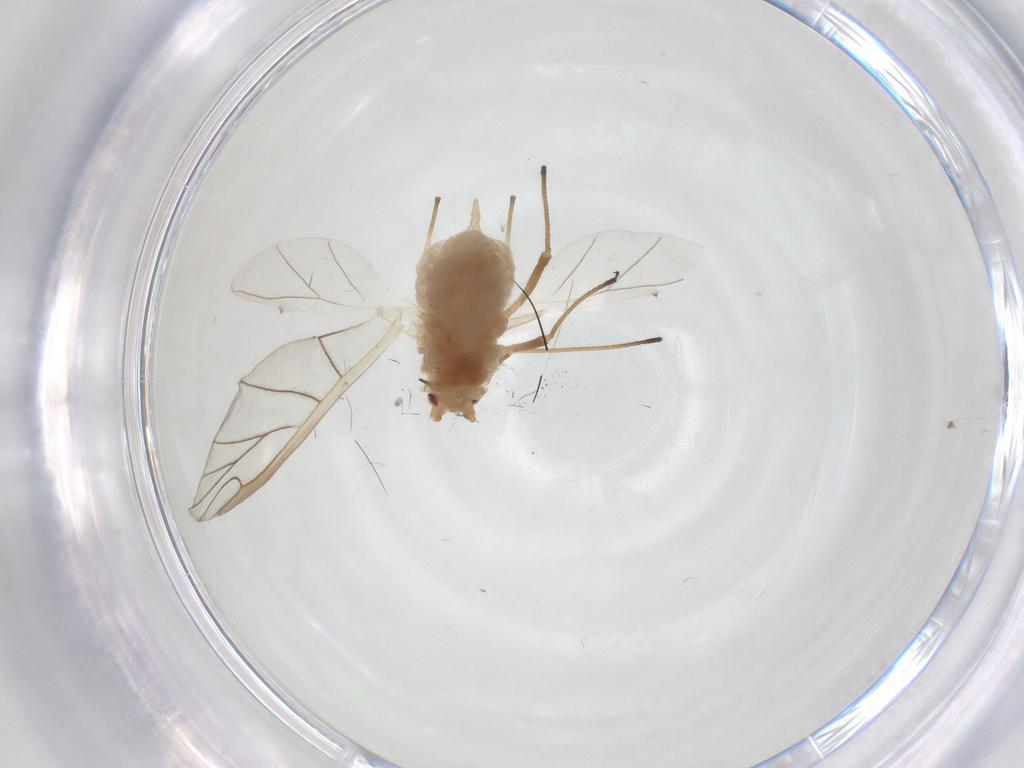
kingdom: Animalia
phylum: Arthropoda
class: Insecta
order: Hemiptera
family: Aphididae
